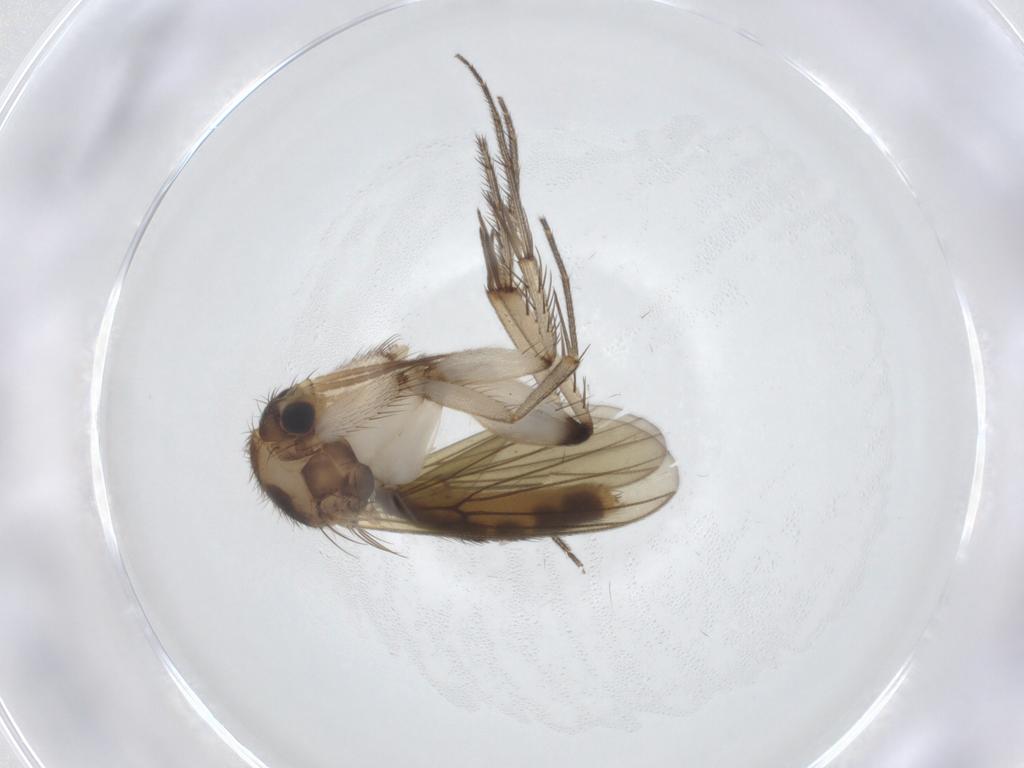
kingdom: Animalia
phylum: Arthropoda
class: Insecta
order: Diptera
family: Mycetophilidae
